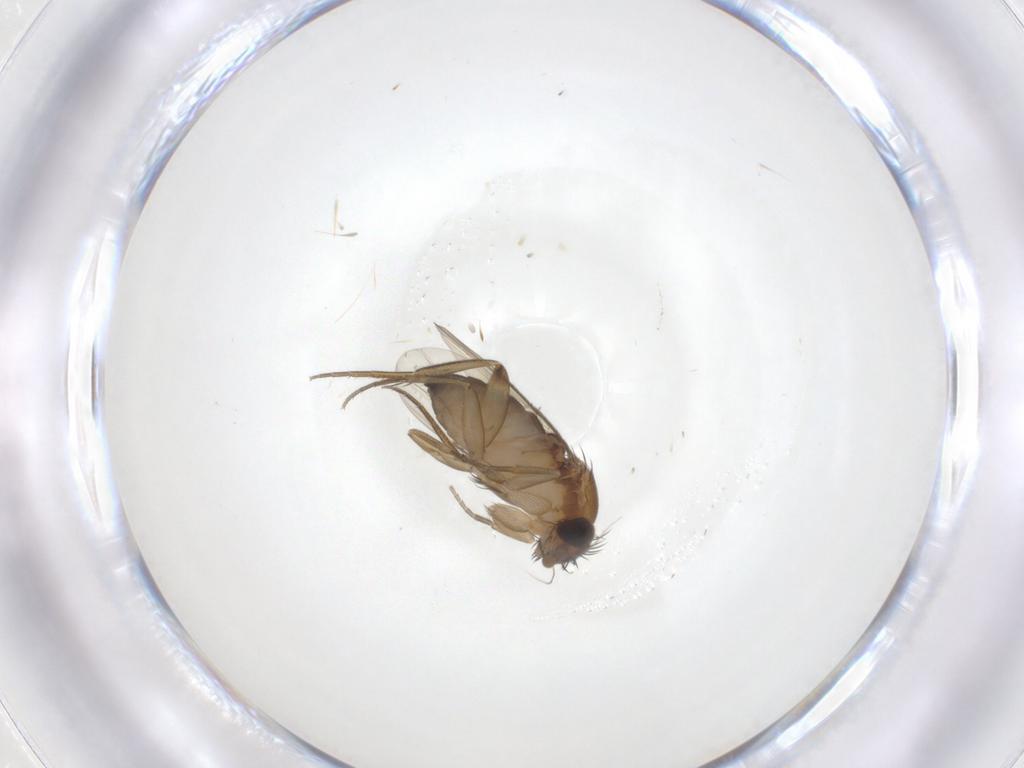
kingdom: Animalia
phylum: Arthropoda
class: Insecta
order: Diptera
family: Phoridae
